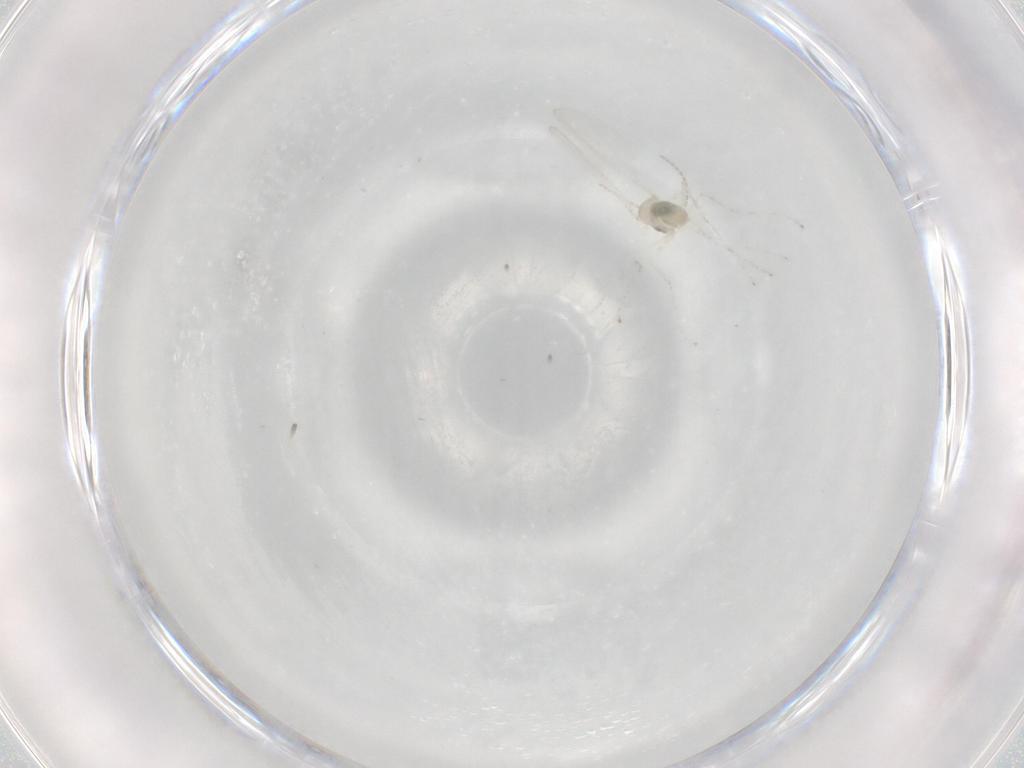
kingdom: Animalia
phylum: Arthropoda
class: Insecta
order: Diptera
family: Cecidomyiidae
